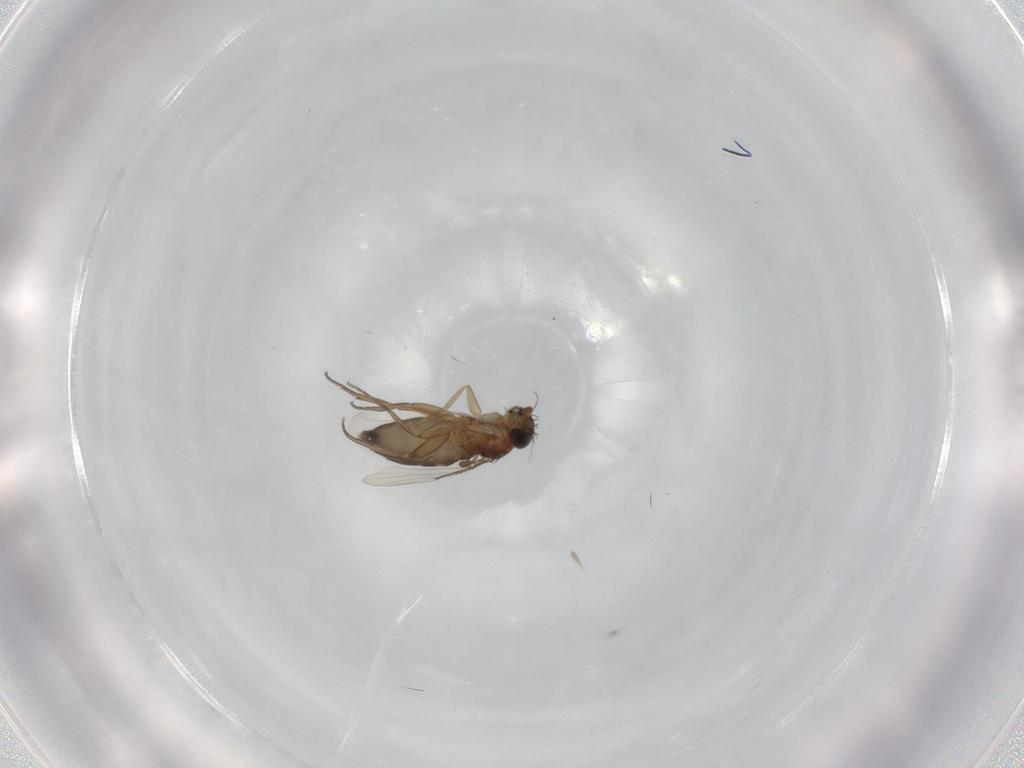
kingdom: Animalia
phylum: Arthropoda
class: Insecta
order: Diptera
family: Phoridae
